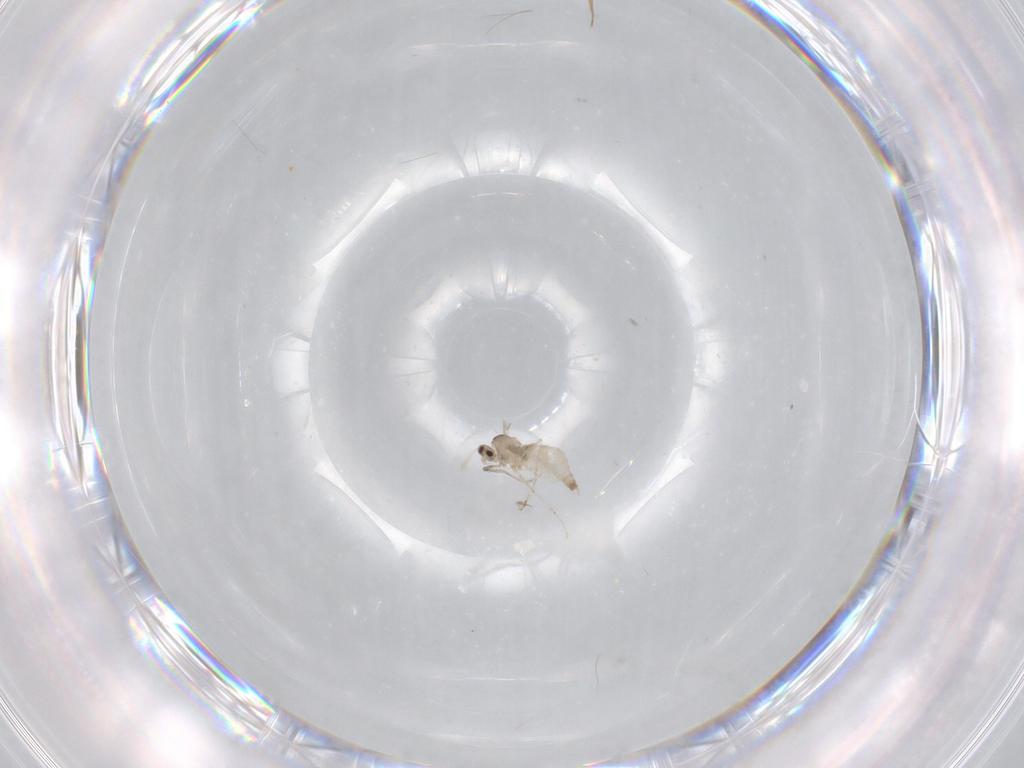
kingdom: Animalia
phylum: Arthropoda
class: Insecta
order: Diptera
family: Cecidomyiidae
